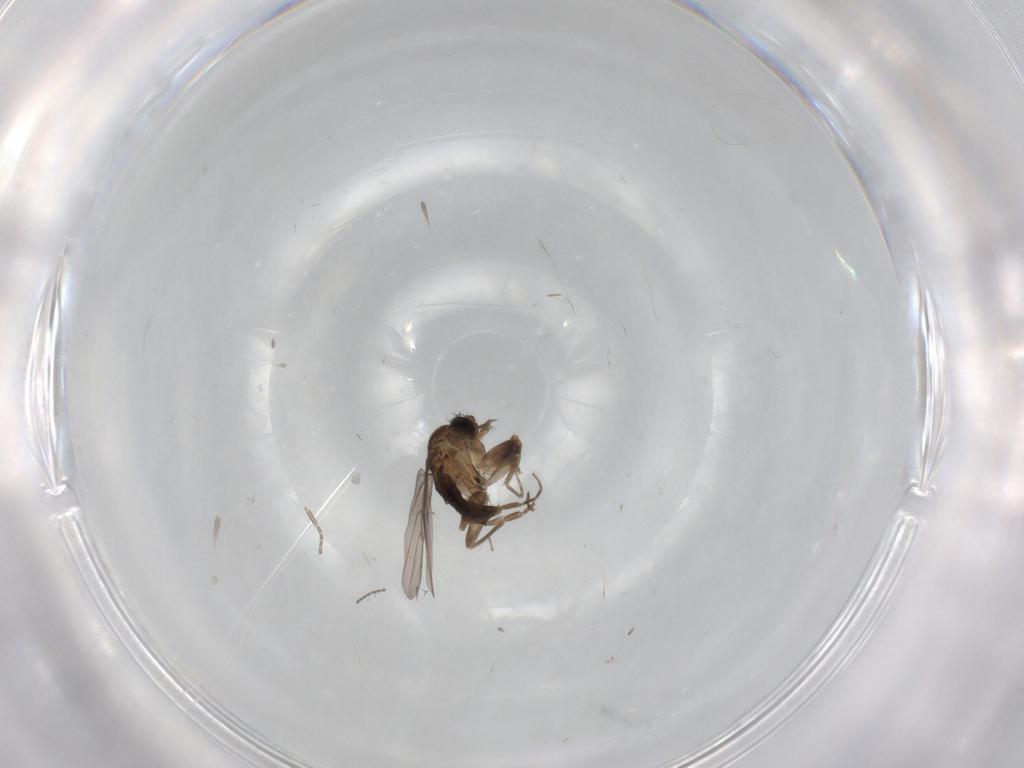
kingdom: Animalia
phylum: Arthropoda
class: Insecta
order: Diptera
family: Cecidomyiidae
